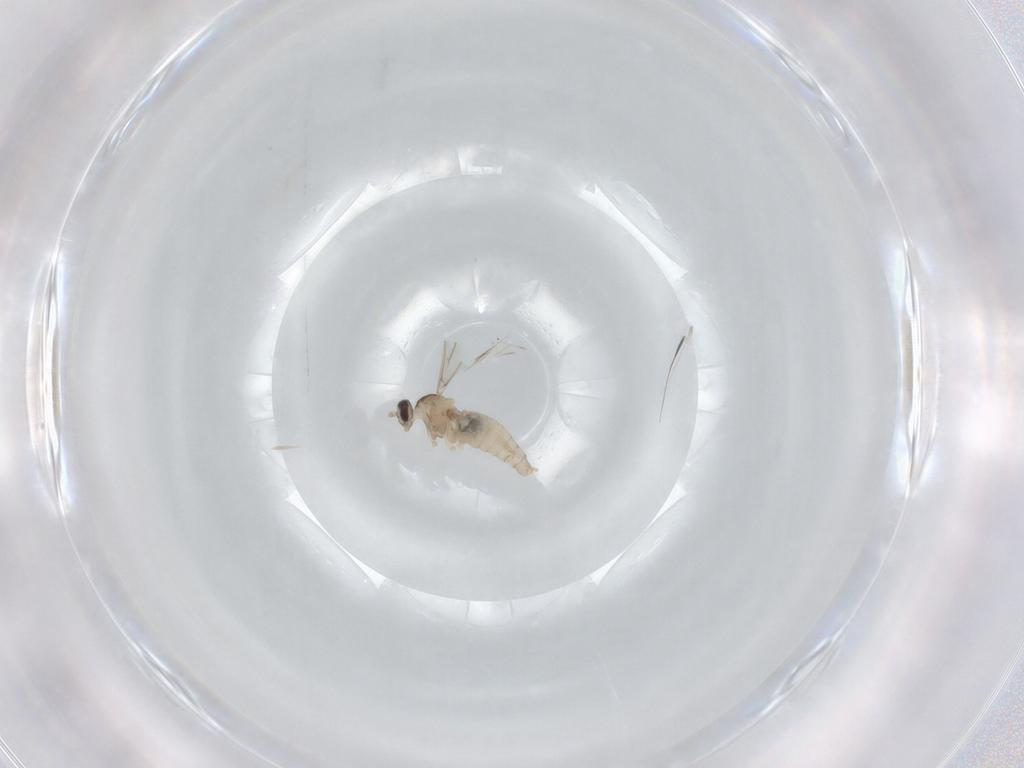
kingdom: Animalia
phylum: Arthropoda
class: Insecta
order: Diptera
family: Cecidomyiidae
